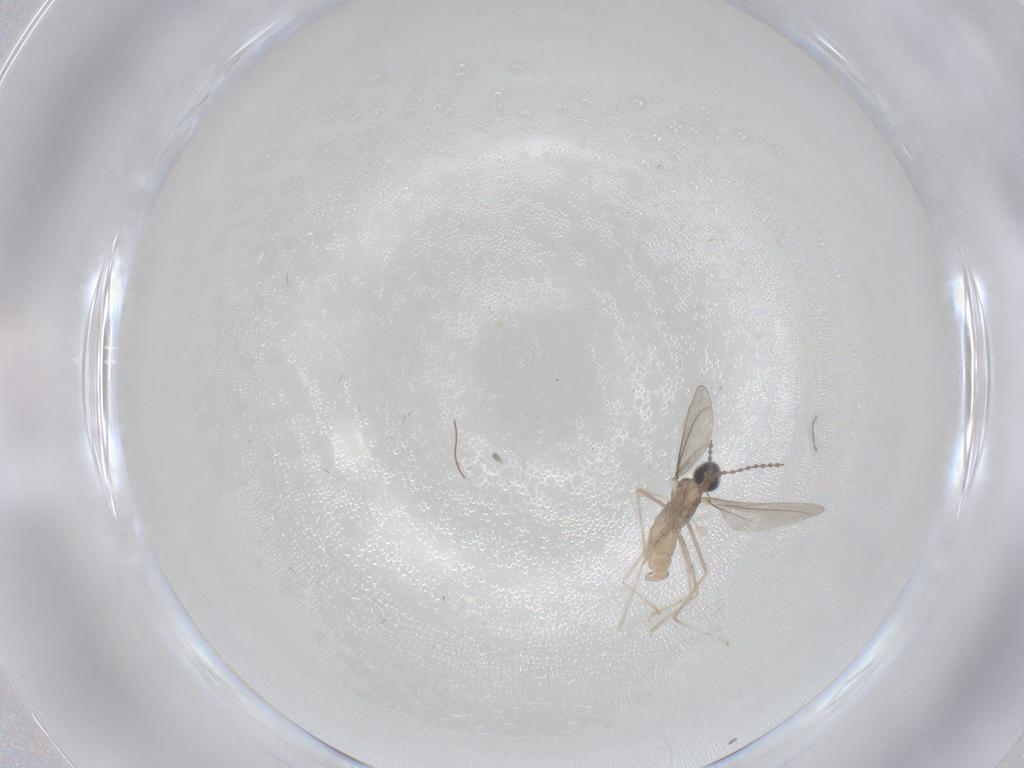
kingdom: Animalia
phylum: Arthropoda
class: Insecta
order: Diptera
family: Cecidomyiidae
